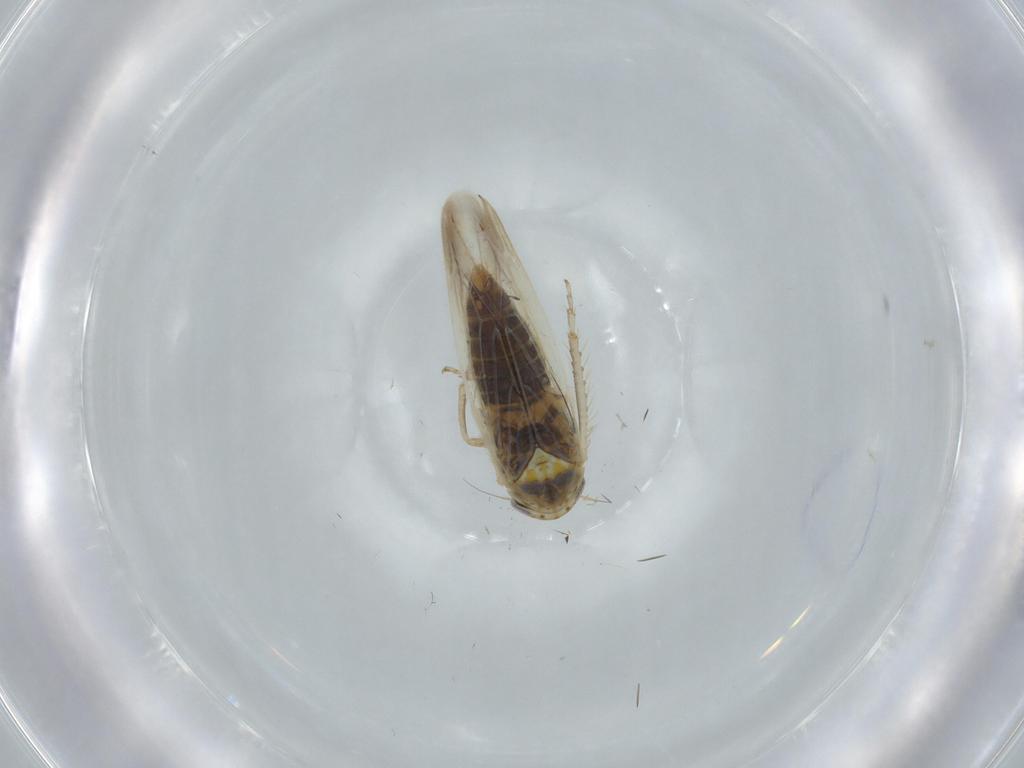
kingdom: Animalia
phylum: Arthropoda
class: Insecta
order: Hemiptera
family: Cicadellidae
